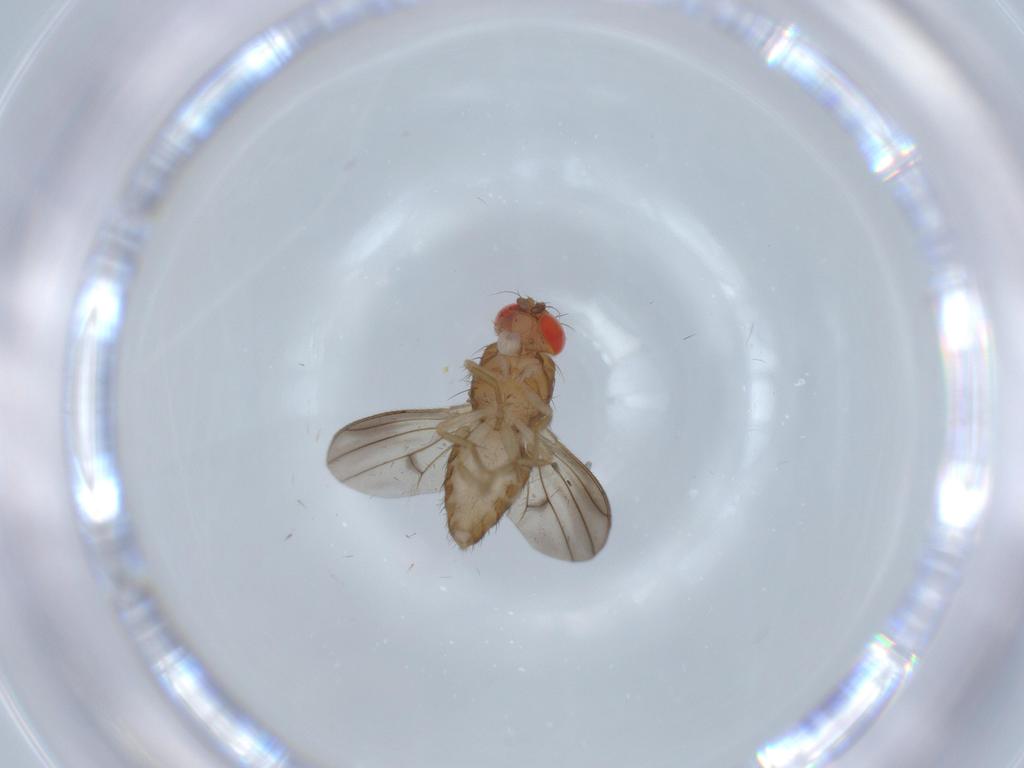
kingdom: Animalia
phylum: Arthropoda
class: Insecta
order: Diptera
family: Drosophilidae
